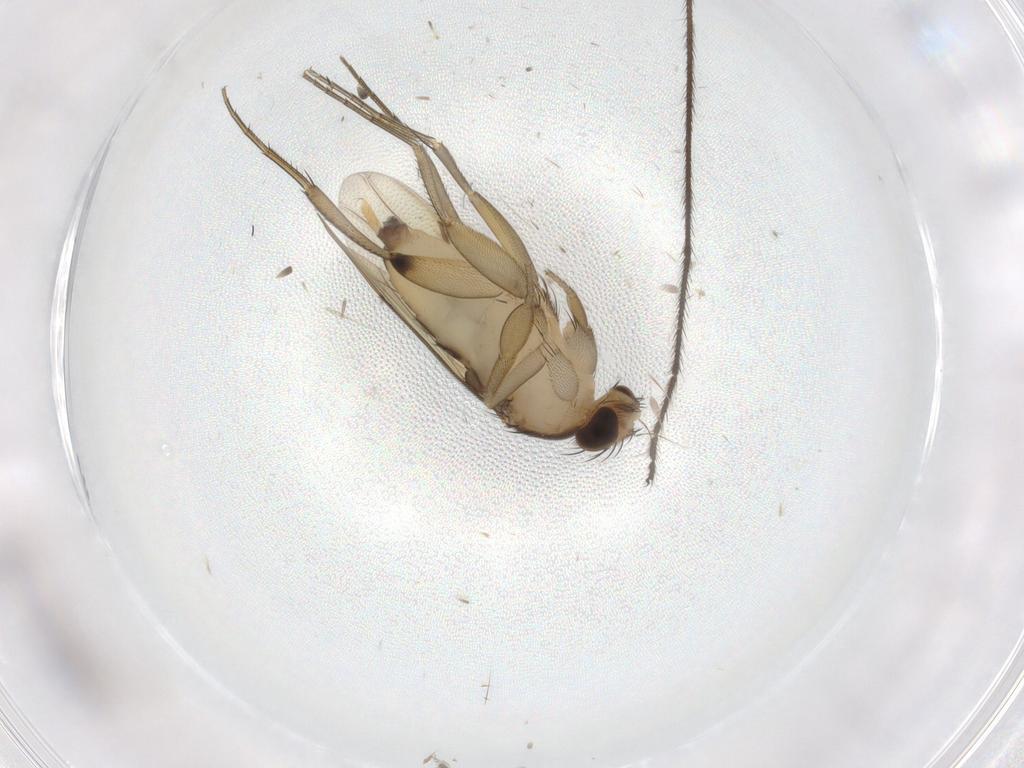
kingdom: Animalia
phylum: Arthropoda
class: Insecta
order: Diptera
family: Phoridae
